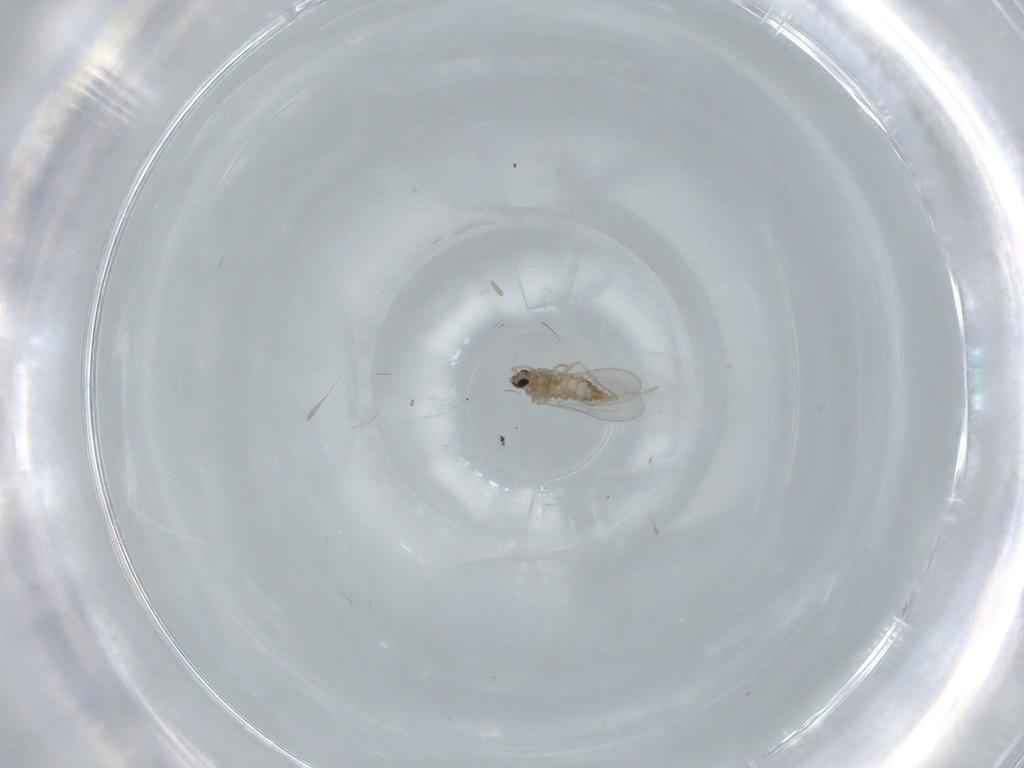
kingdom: Animalia
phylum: Arthropoda
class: Insecta
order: Diptera
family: Cecidomyiidae
